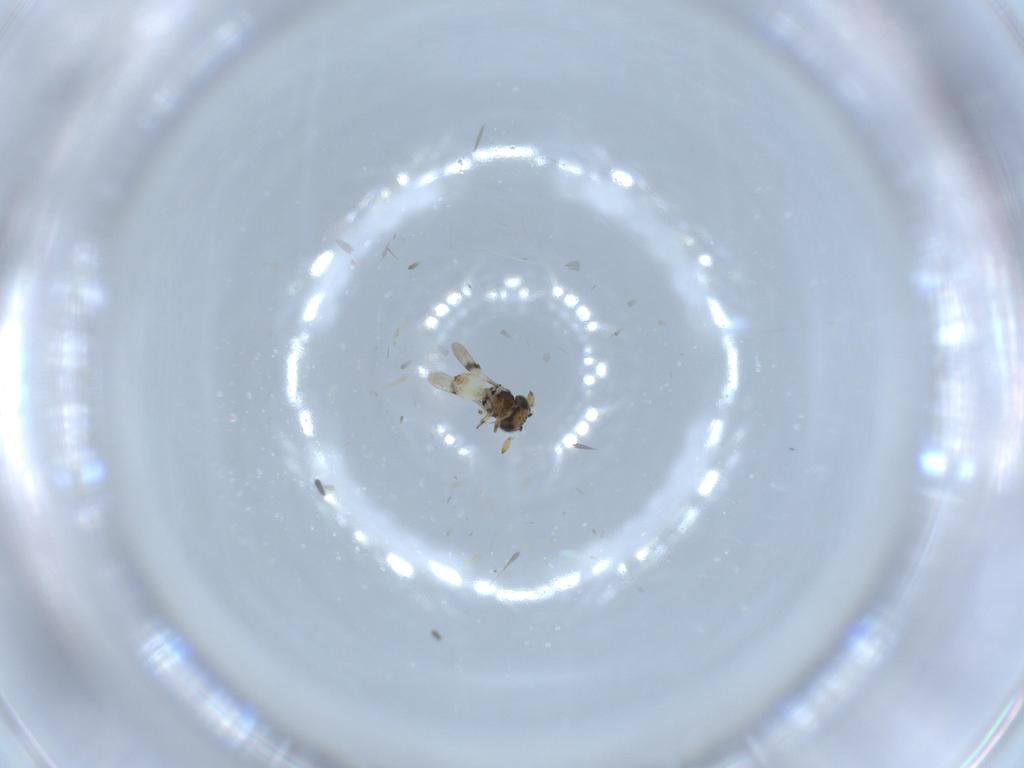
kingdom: Animalia
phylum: Arthropoda
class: Insecta
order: Hymenoptera
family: Scelionidae
